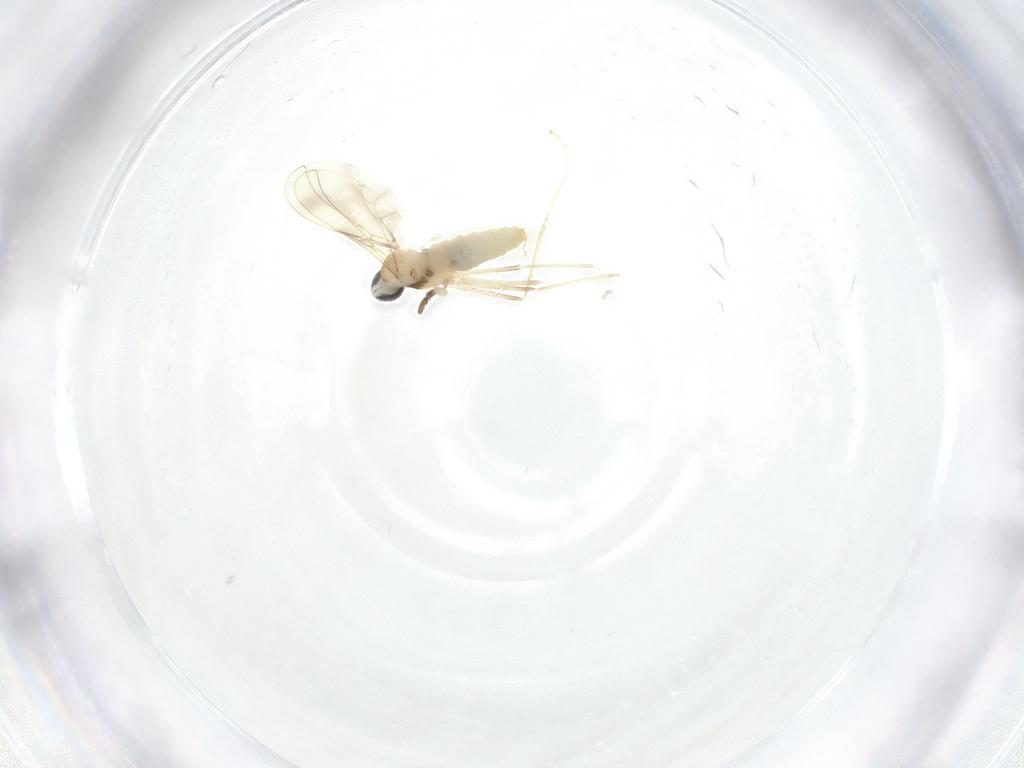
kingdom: Animalia
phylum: Arthropoda
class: Insecta
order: Diptera
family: Cecidomyiidae
